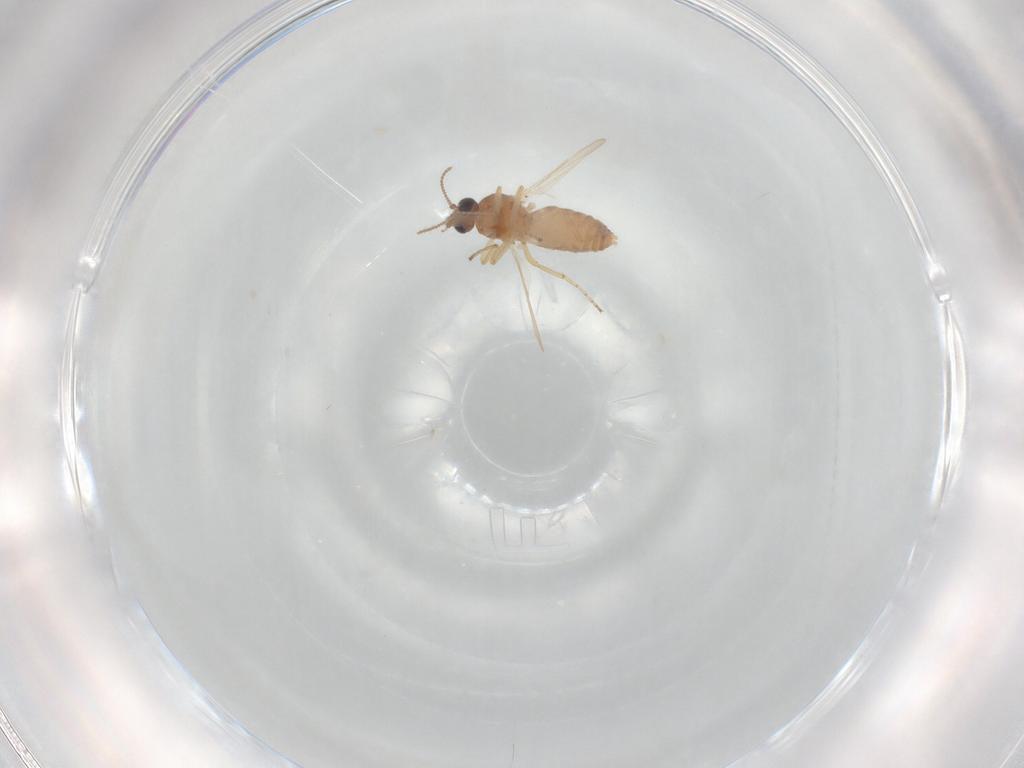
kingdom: Animalia
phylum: Arthropoda
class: Insecta
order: Diptera
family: Ceratopogonidae
